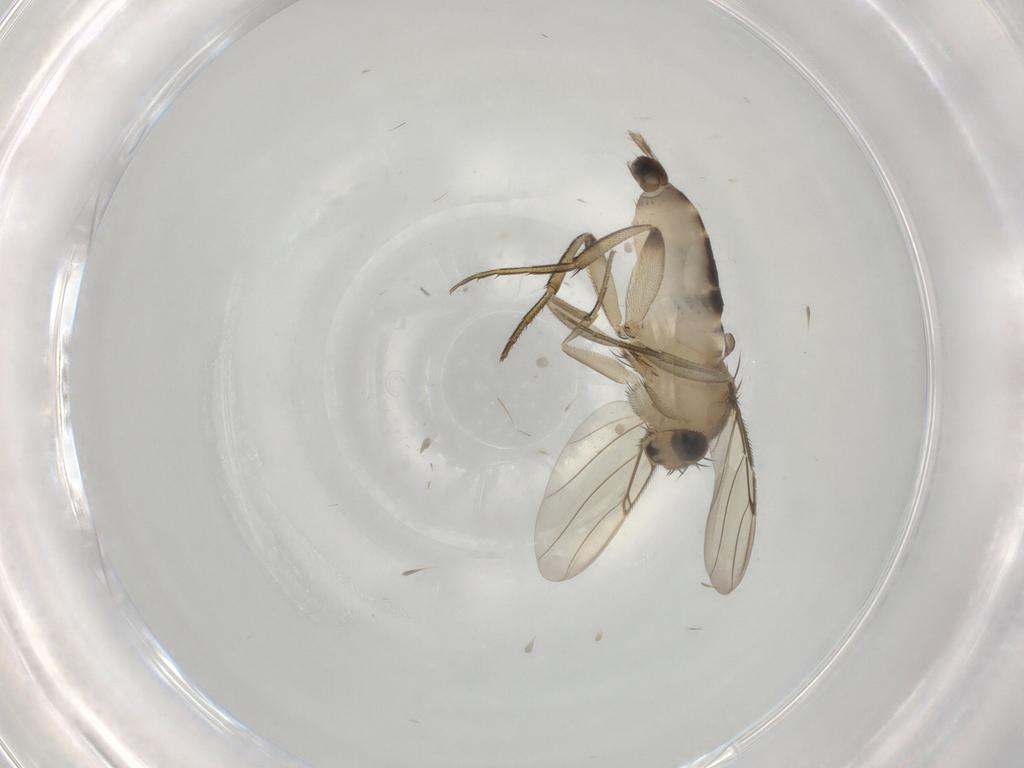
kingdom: Animalia
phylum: Arthropoda
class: Insecta
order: Diptera
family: Phoridae
